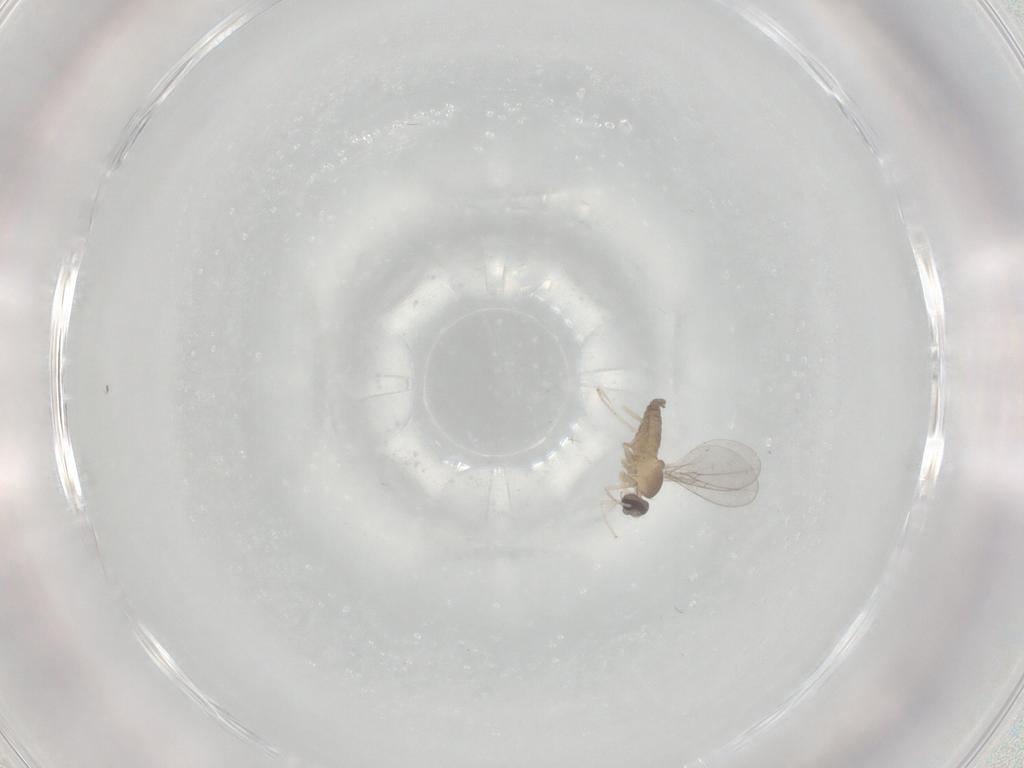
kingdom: Animalia
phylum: Arthropoda
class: Insecta
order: Diptera
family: Cecidomyiidae
